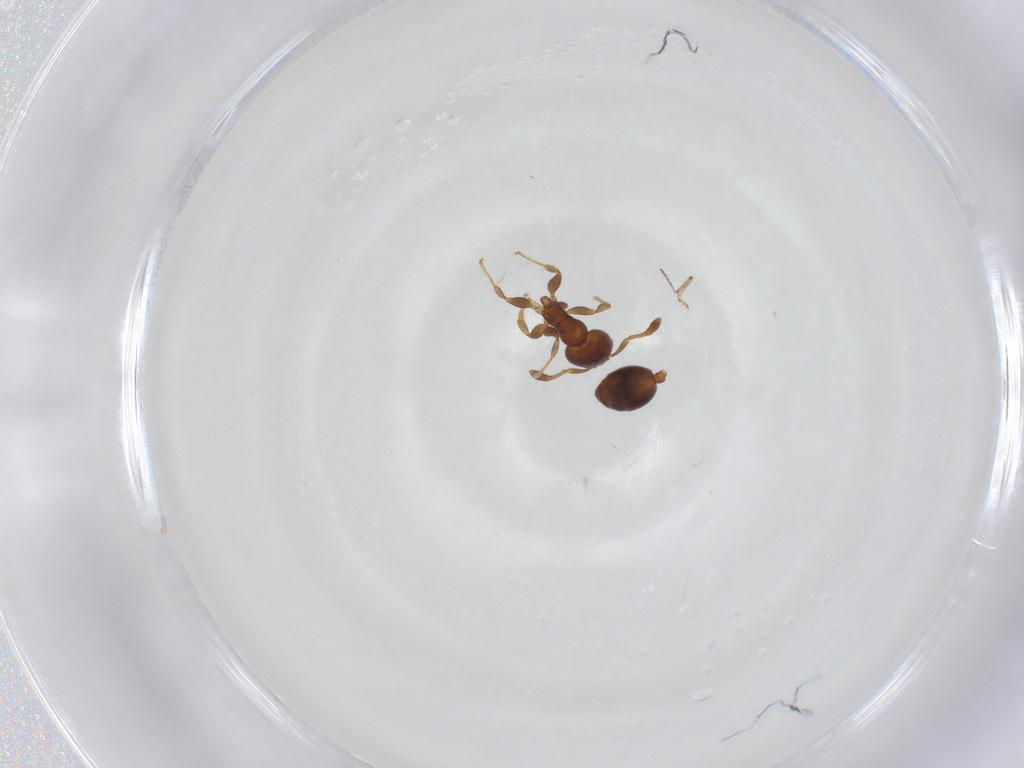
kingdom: Animalia
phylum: Arthropoda
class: Insecta
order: Hymenoptera
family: Formicidae
